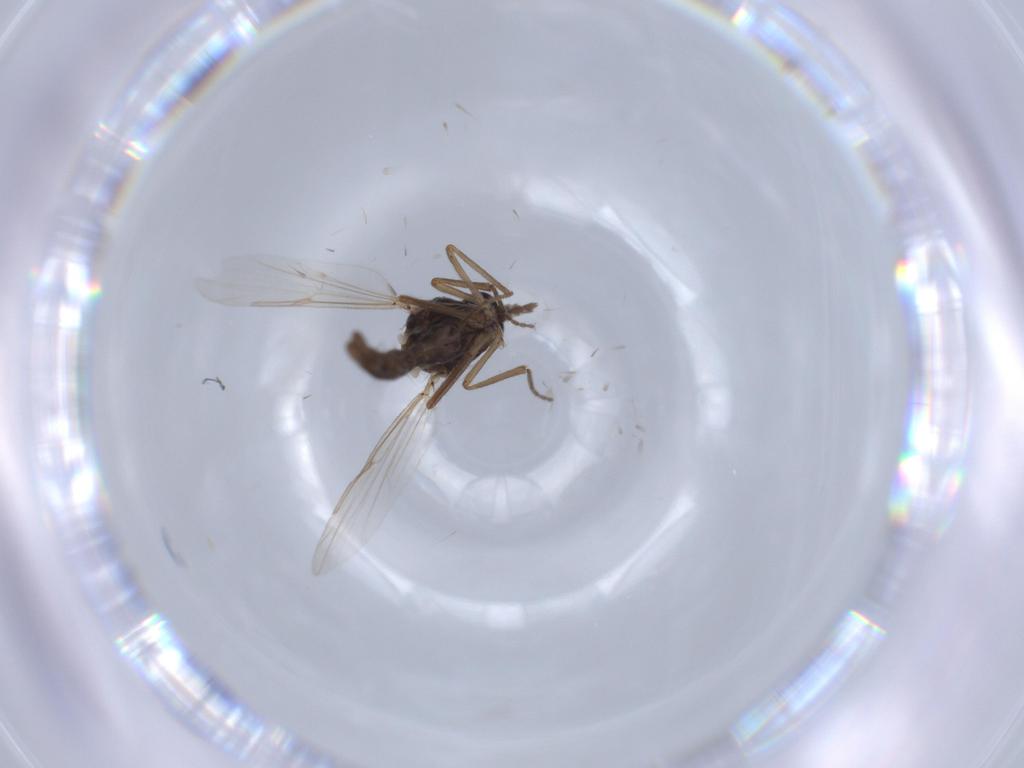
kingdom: Animalia
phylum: Arthropoda
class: Insecta
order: Diptera
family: Ceratopogonidae
